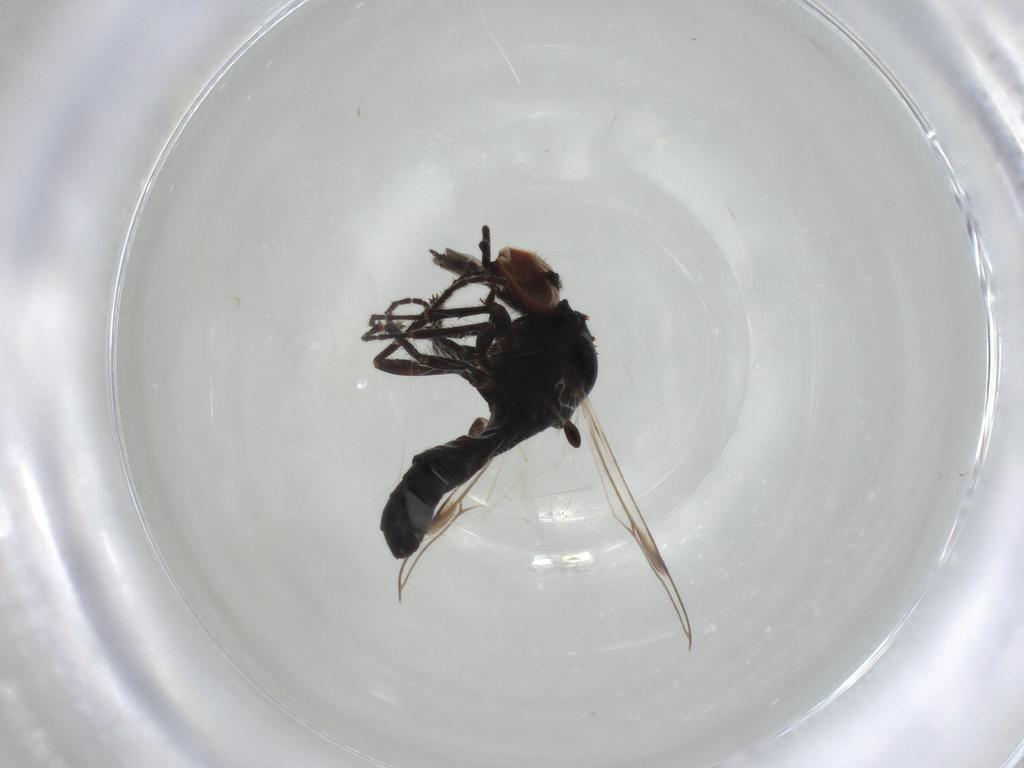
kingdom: Animalia
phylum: Arthropoda
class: Insecta
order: Diptera
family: Bibionidae
